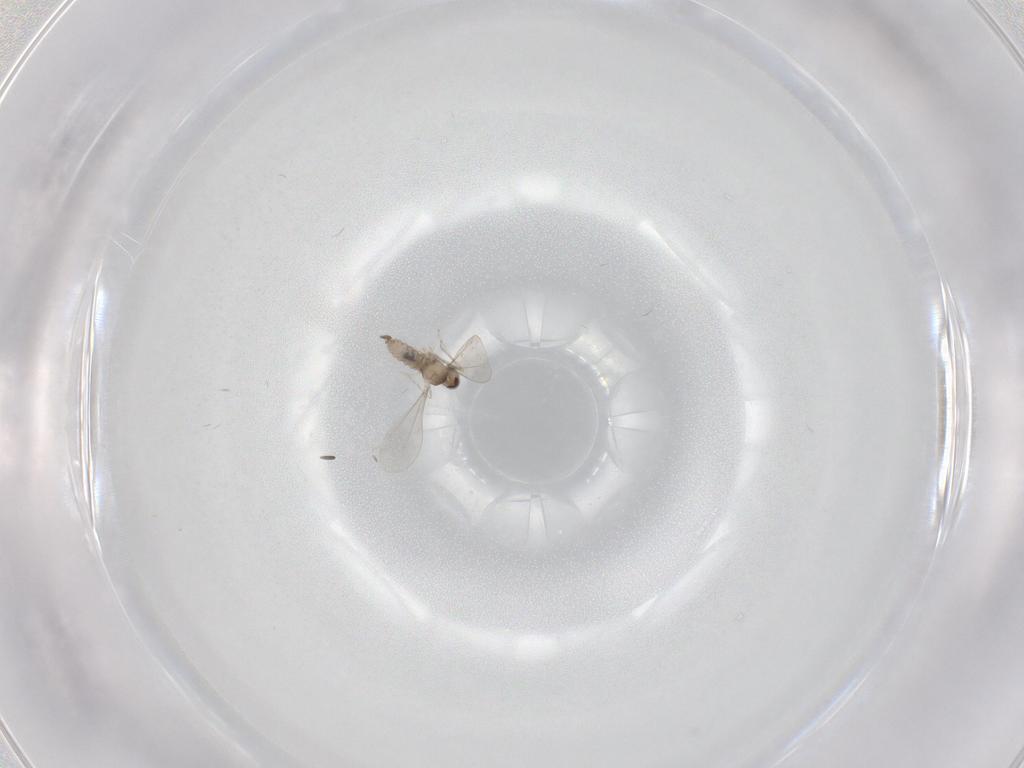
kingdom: Animalia
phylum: Arthropoda
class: Insecta
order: Diptera
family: Cecidomyiidae
